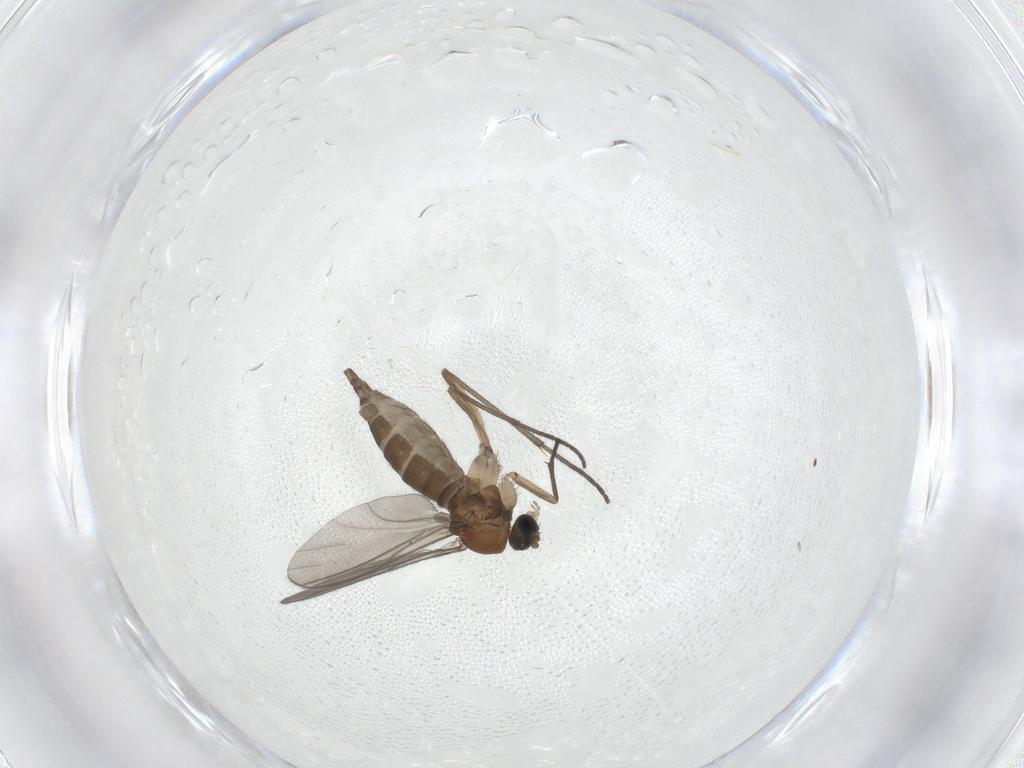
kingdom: Animalia
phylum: Arthropoda
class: Insecta
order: Diptera
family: Sciaridae
